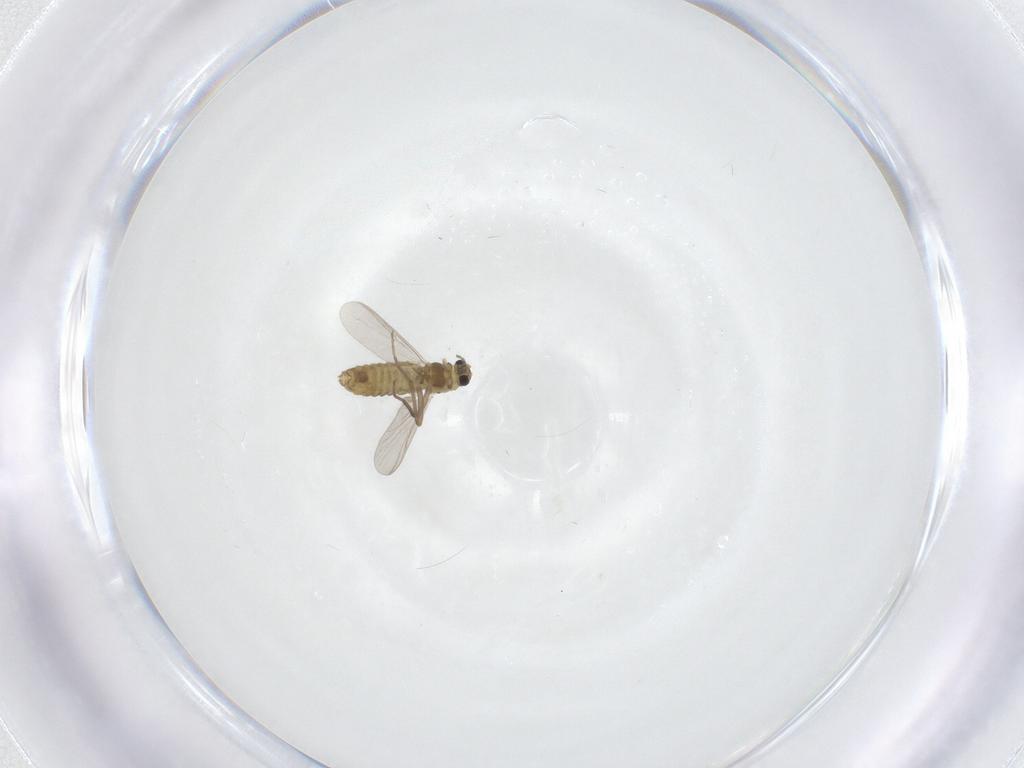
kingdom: Animalia
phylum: Arthropoda
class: Insecta
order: Diptera
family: Chironomidae
